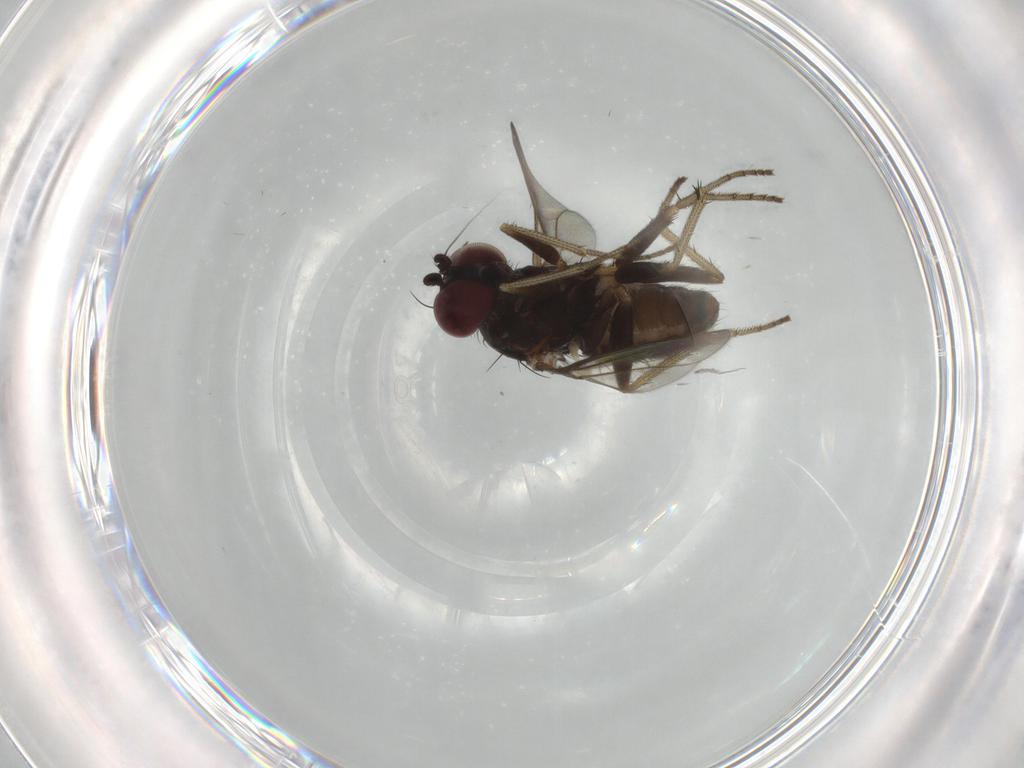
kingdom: Animalia
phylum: Arthropoda
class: Insecta
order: Diptera
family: Dolichopodidae
